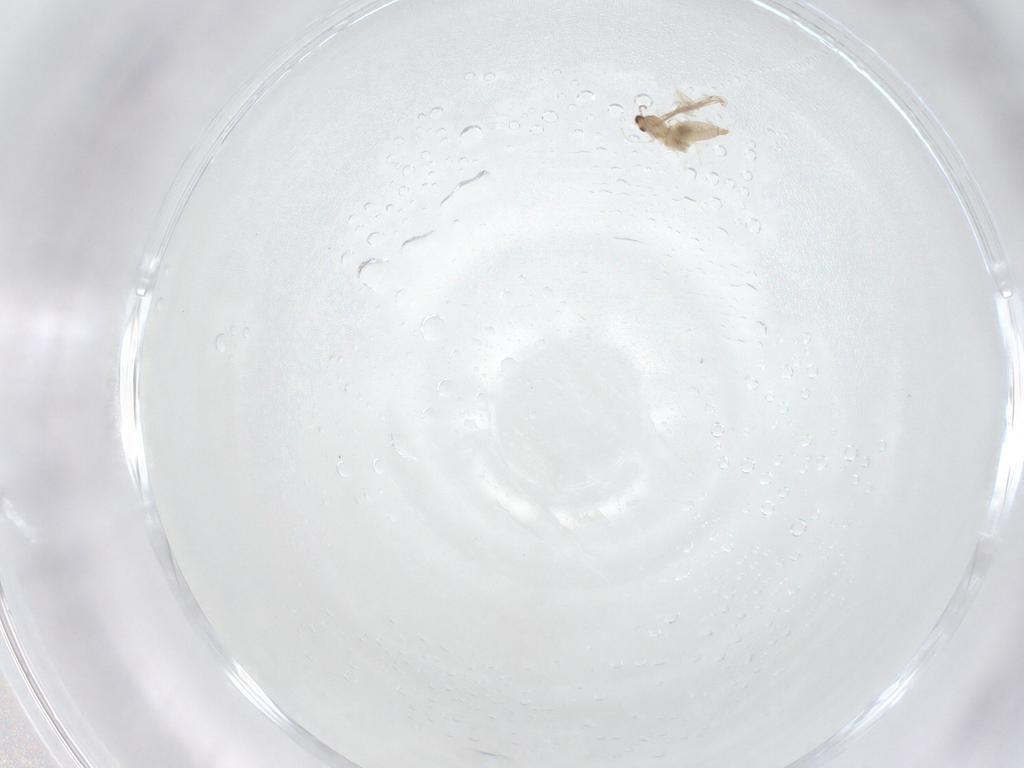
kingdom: Animalia
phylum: Arthropoda
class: Insecta
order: Diptera
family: Cecidomyiidae
